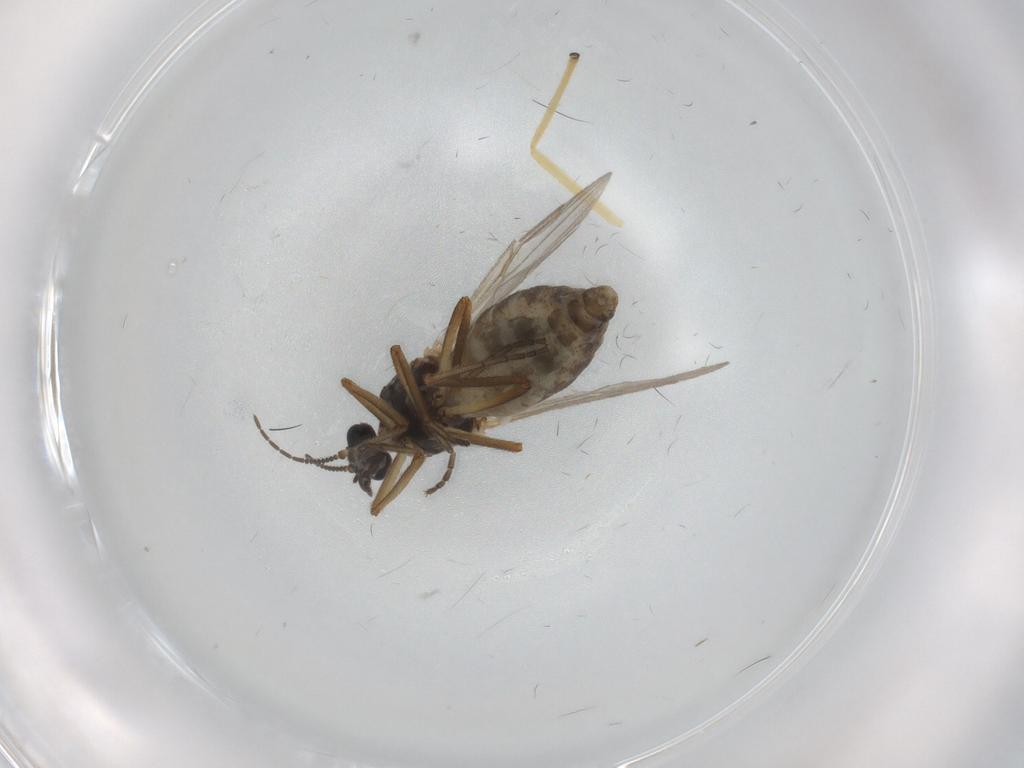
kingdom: Animalia
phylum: Arthropoda
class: Insecta
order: Diptera
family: Ceratopogonidae
